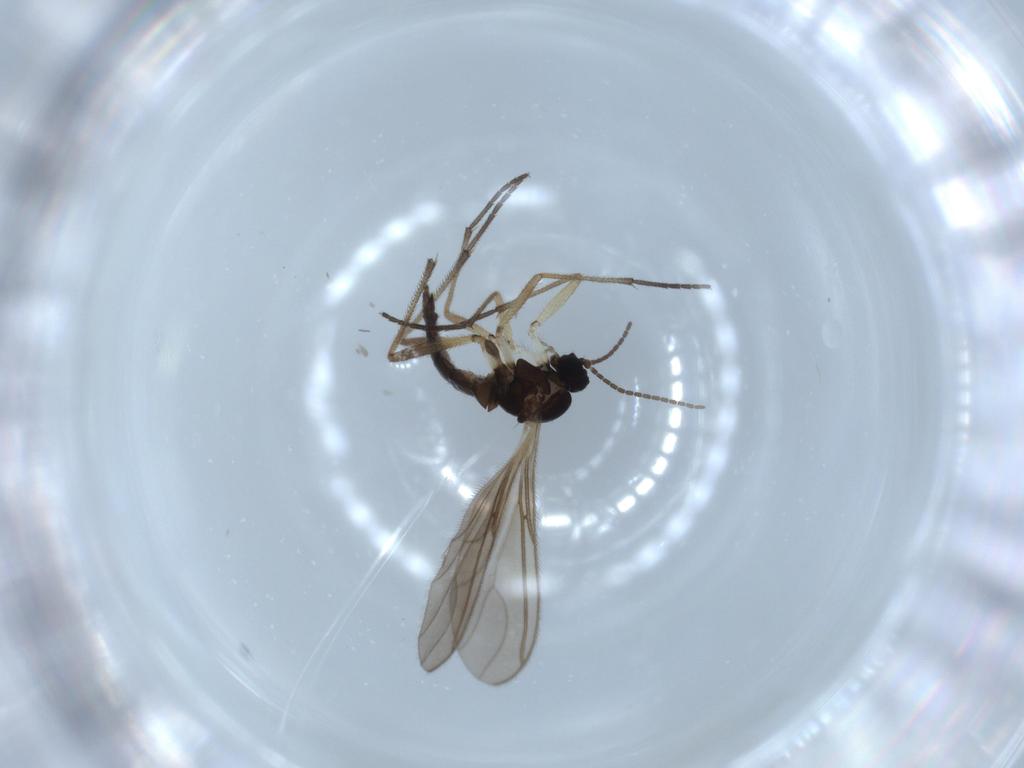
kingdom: Animalia
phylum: Arthropoda
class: Insecta
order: Diptera
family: Sciaridae
